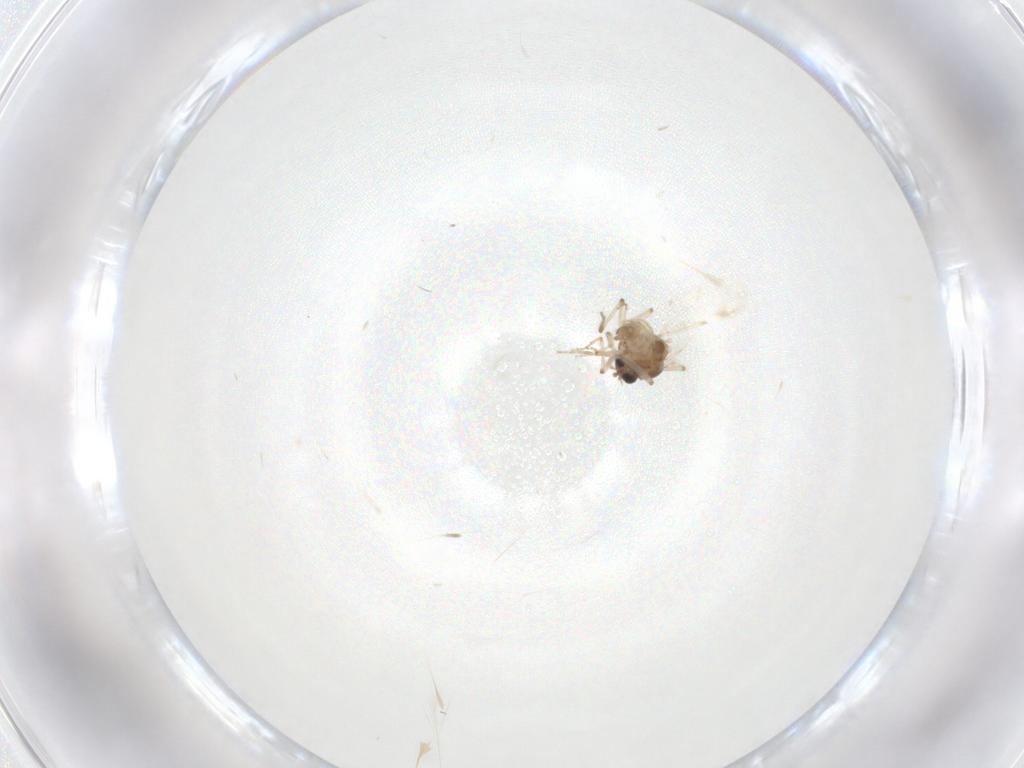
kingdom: Animalia
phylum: Arthropoda
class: Insecta
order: Diptera
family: Ceratopogonidae
